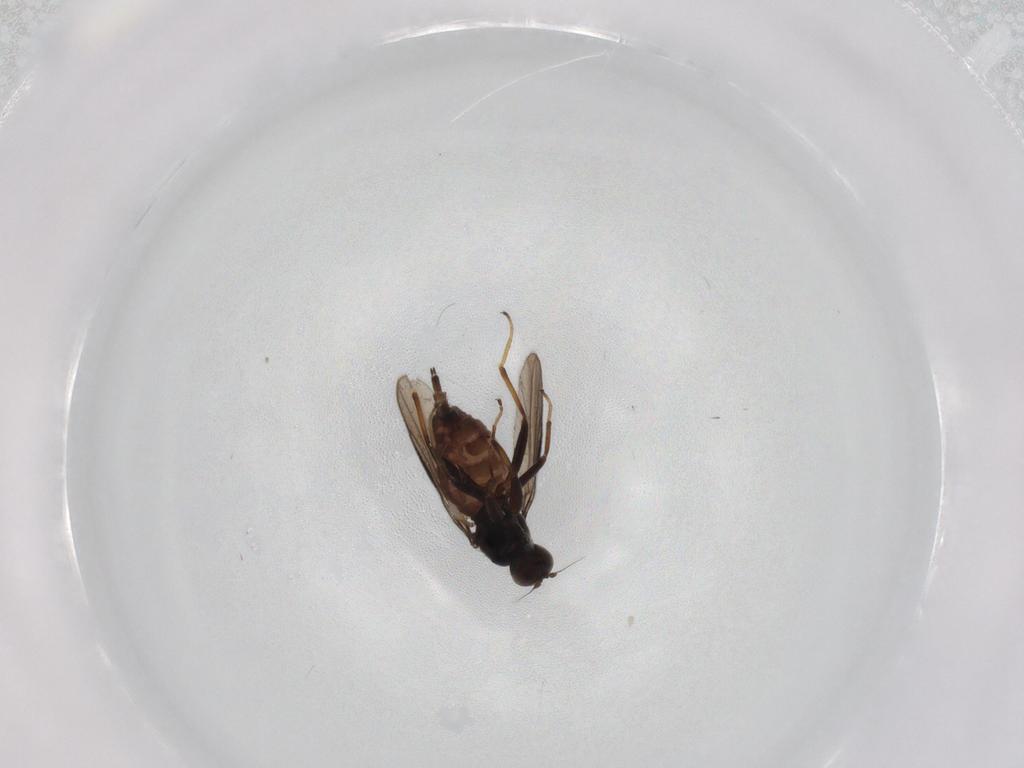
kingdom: Animalia
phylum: Arthropoda
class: Insecta
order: Diptera
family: Hybotidae
